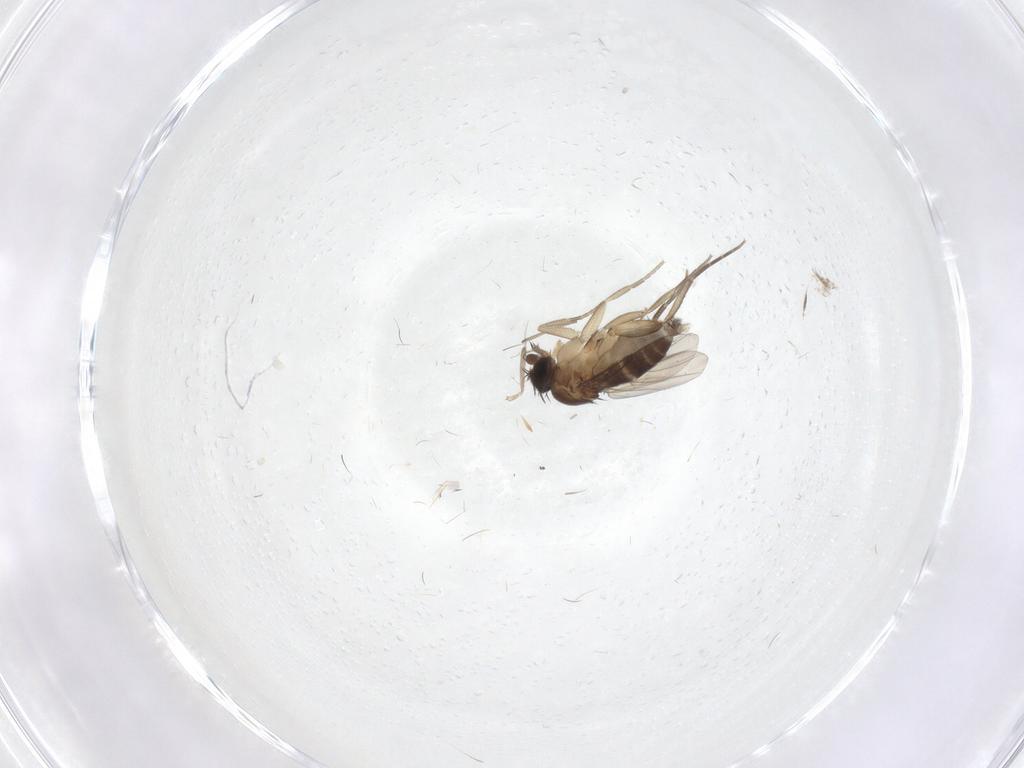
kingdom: Animalia
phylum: Arthropoda
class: Insecta
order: Diptera
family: Phoridae
